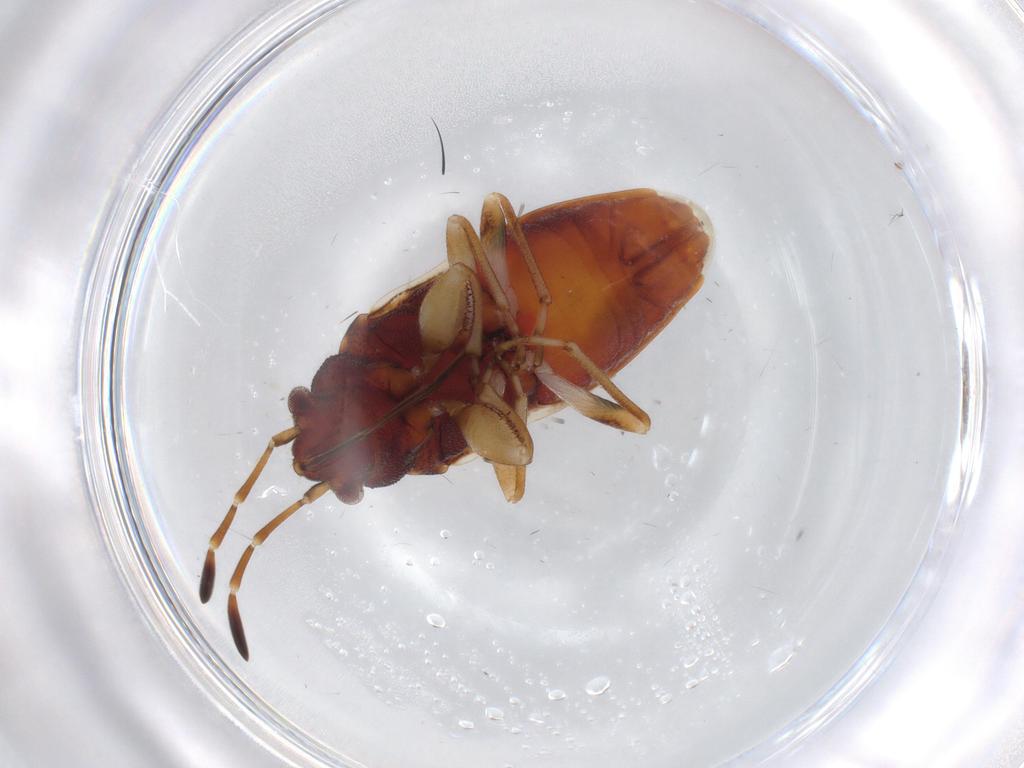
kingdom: Animalia
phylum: Arthropoda
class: Insecta
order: Hemiptera
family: Rhyparochromidae
